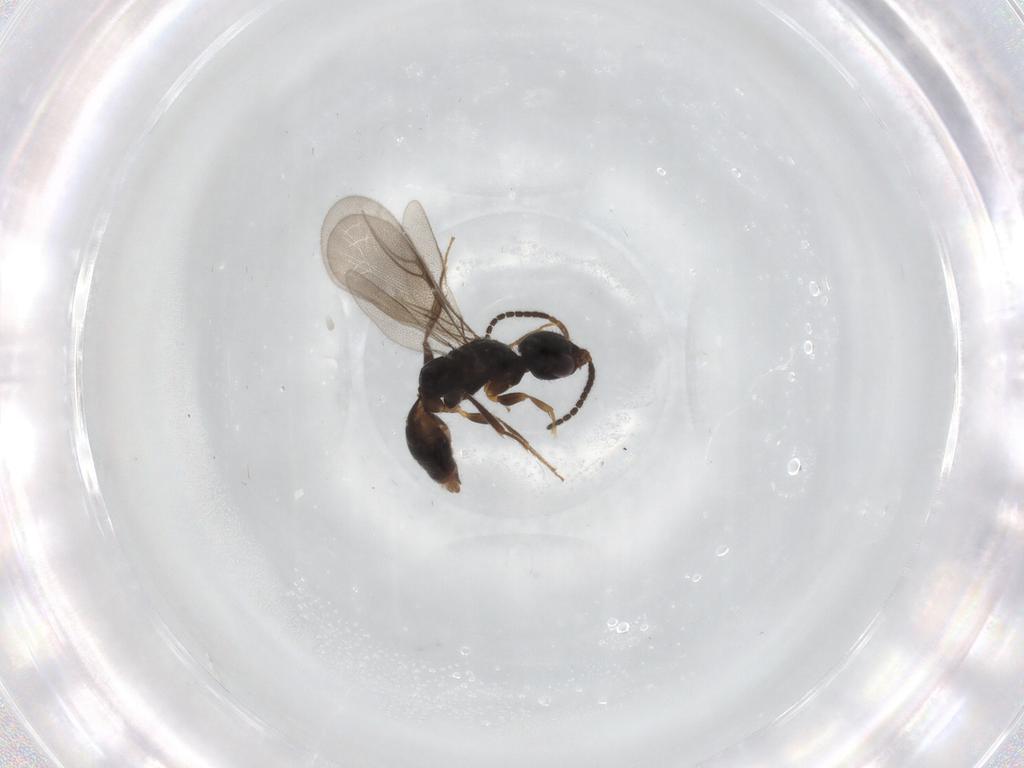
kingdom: Animalia
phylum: Arthropoda
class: Insecta
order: Hymenoptera
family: Bethylidae
